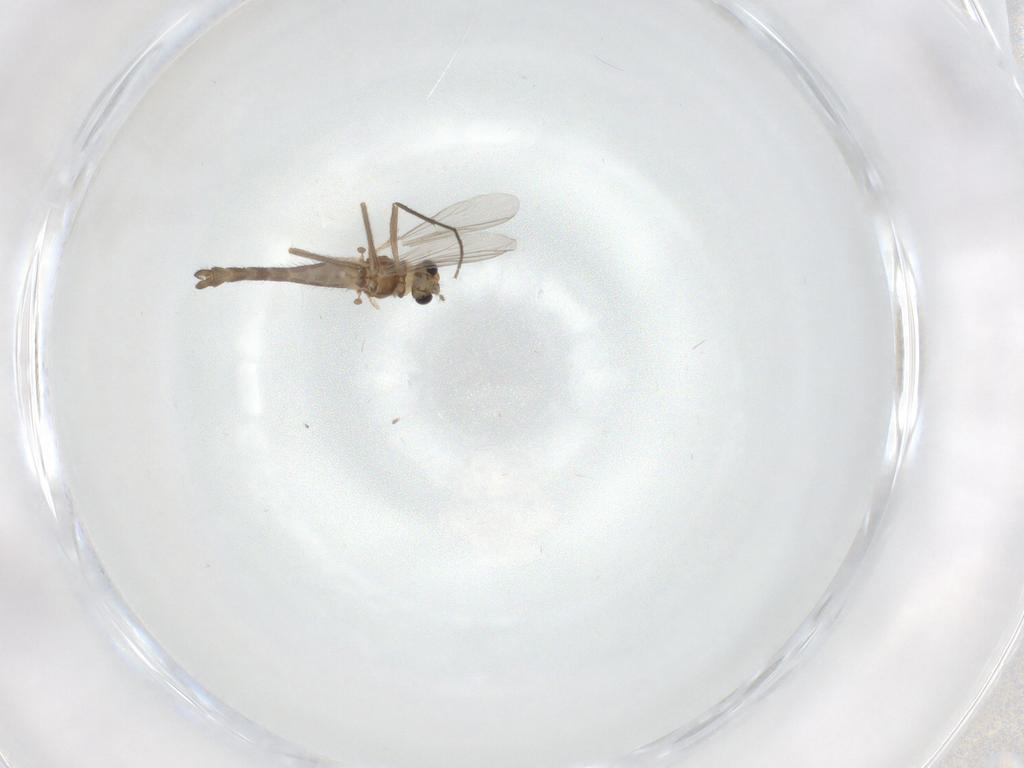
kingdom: Animalia
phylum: Arthropoda
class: Insecta
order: Diptera
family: Chironomidae
